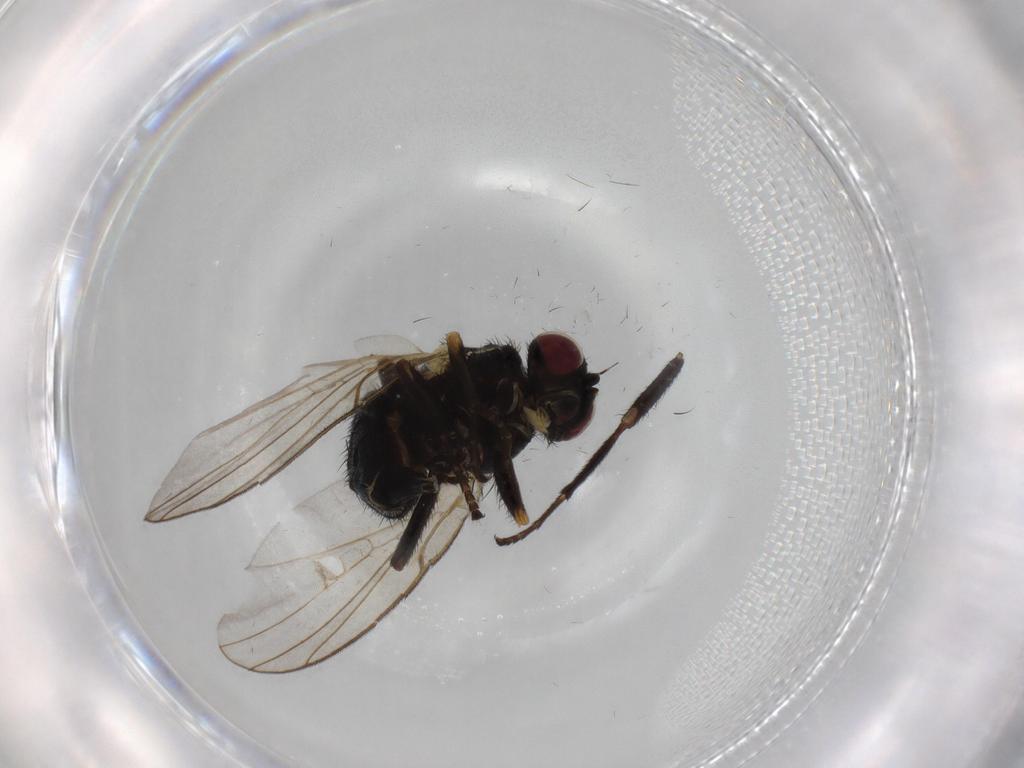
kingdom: Animalia
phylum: Arthropoda
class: Insecta
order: Diptera
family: Agromyzidae
